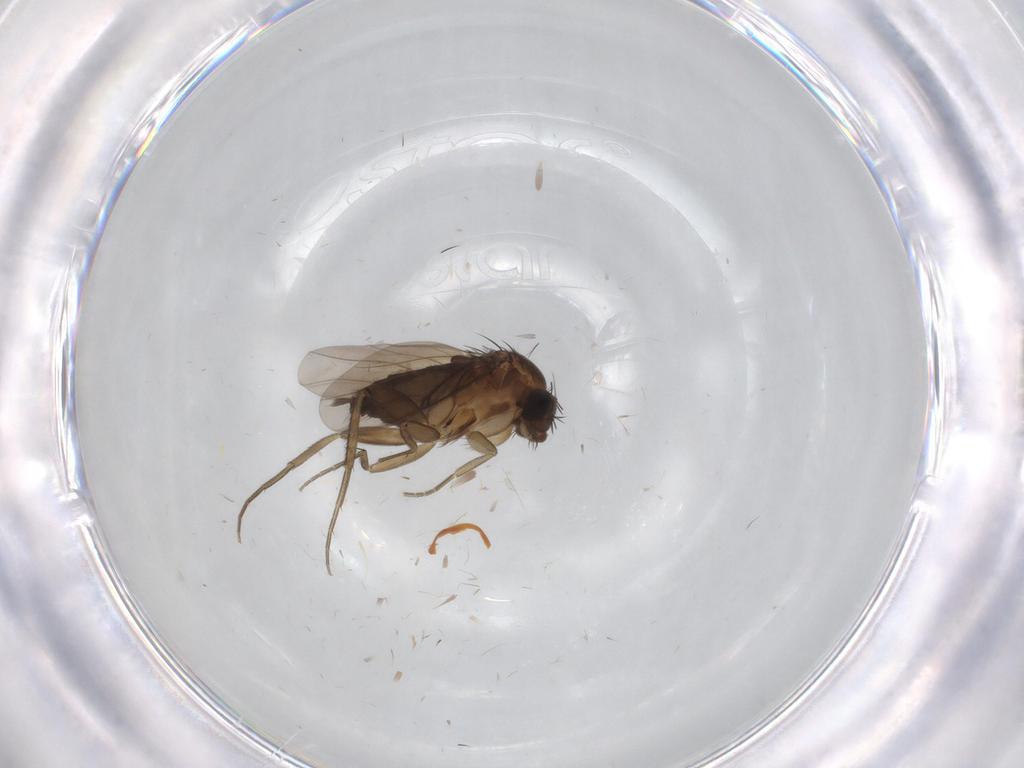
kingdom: Animalia
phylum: Arthropoda
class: Insecta
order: Diptera
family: Phoridae
